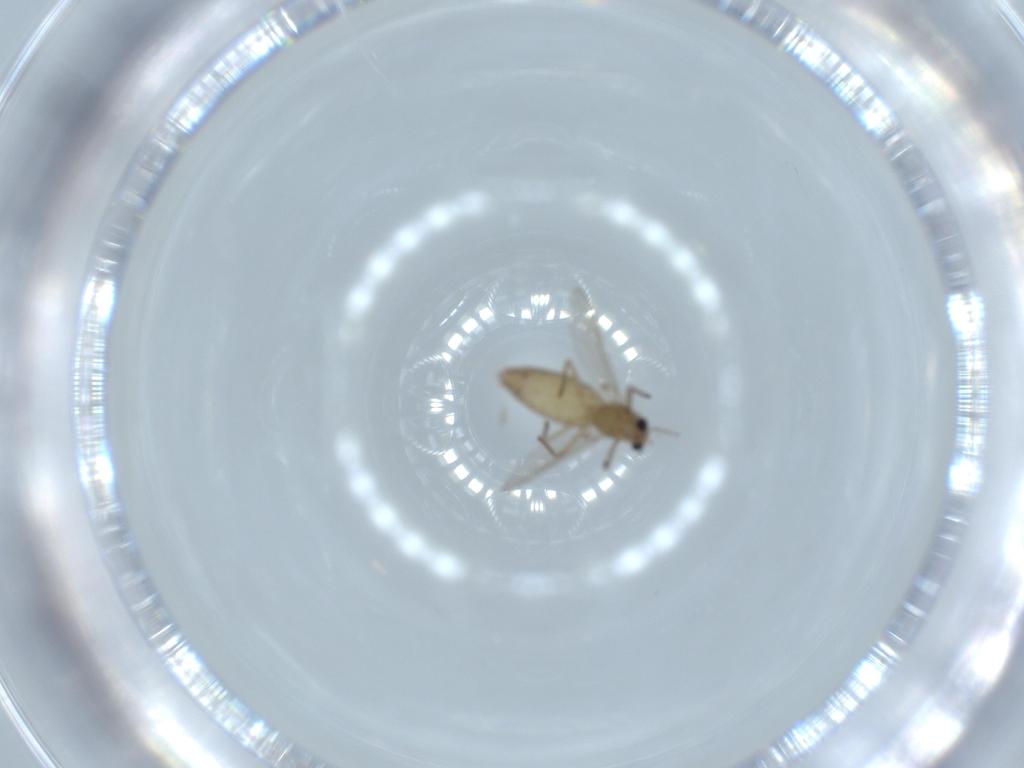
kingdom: Animalia
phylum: Arthropoda
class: Insecta
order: Diptera
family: Chironomidae
